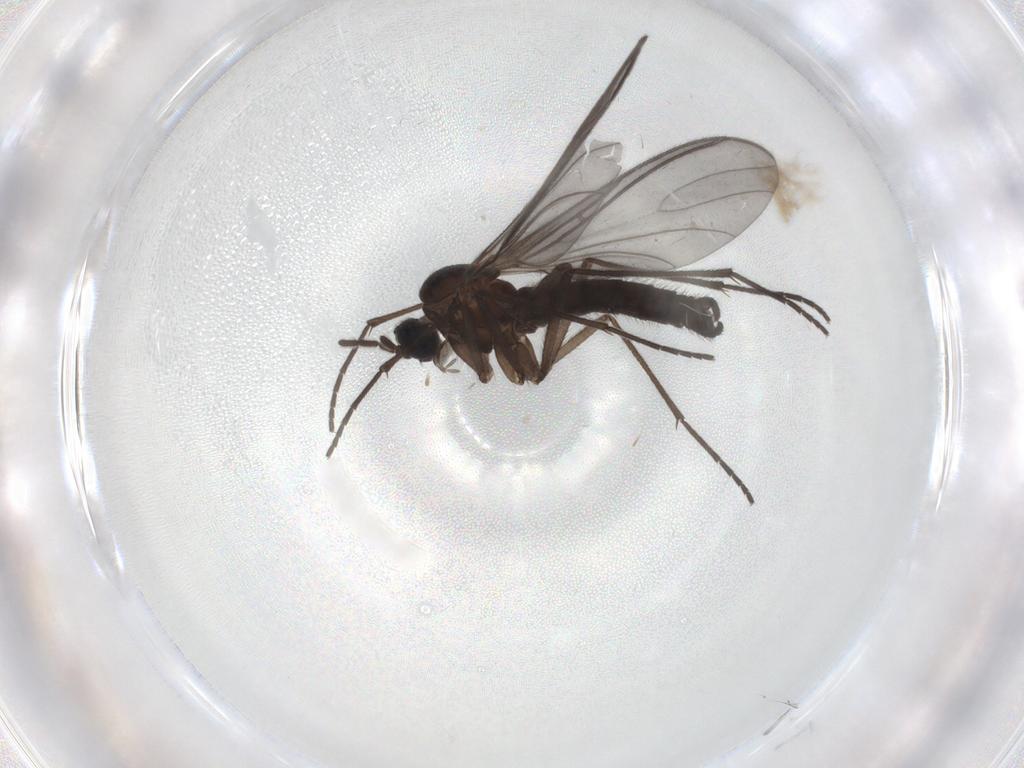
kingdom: Animalia
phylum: Arthropoda
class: Insecta
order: Diptera
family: Sciaridae
